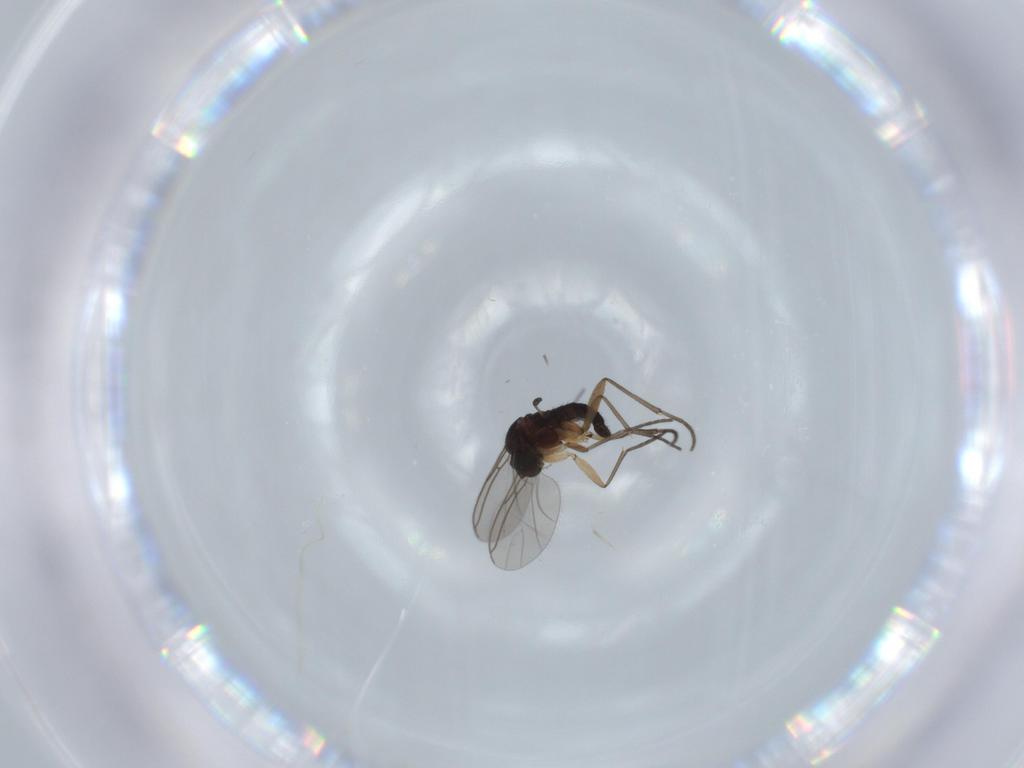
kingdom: Animalia
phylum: Arthropoda
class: Insecta
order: Diptera
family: Sciaridae
